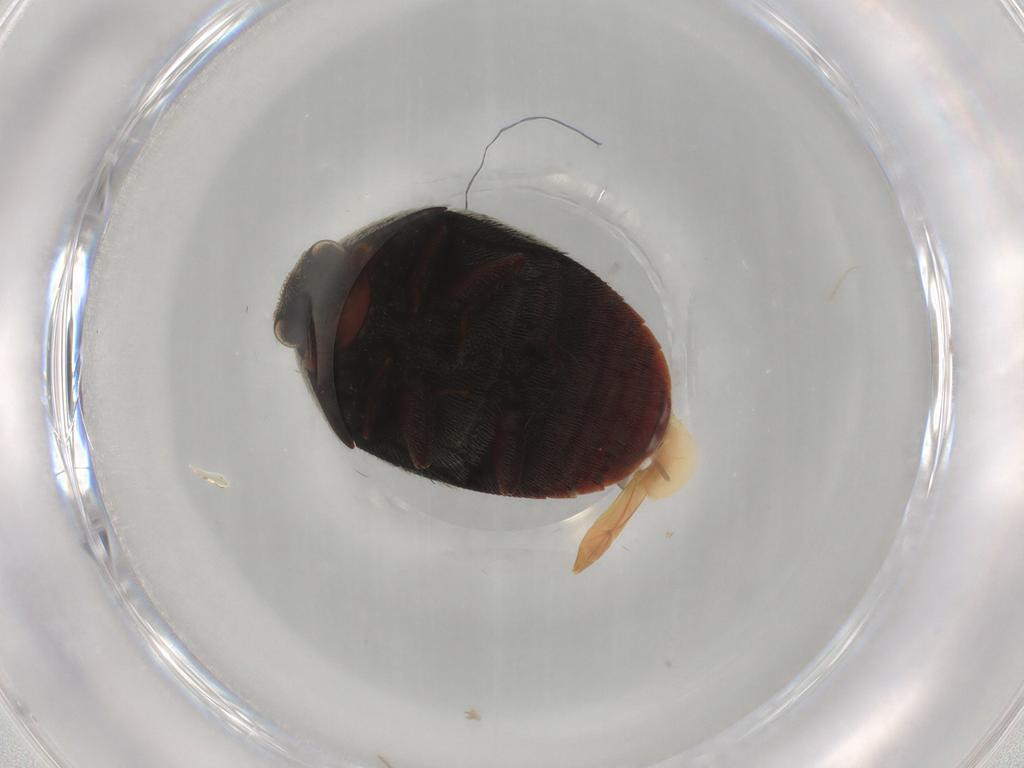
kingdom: Animalia
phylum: Arthropoda
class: Insecta
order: Coleoptera
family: Dermestidae
